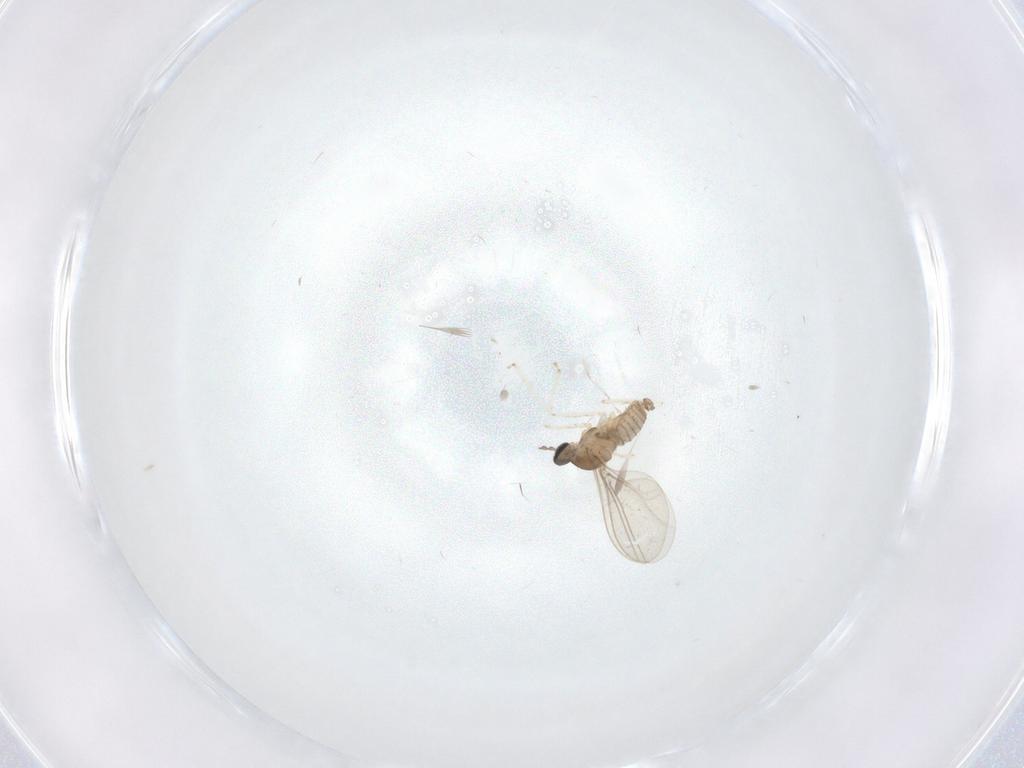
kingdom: Animalia
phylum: Arthropoda
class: Insecta
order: Diptera
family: Cecidomyiidae
